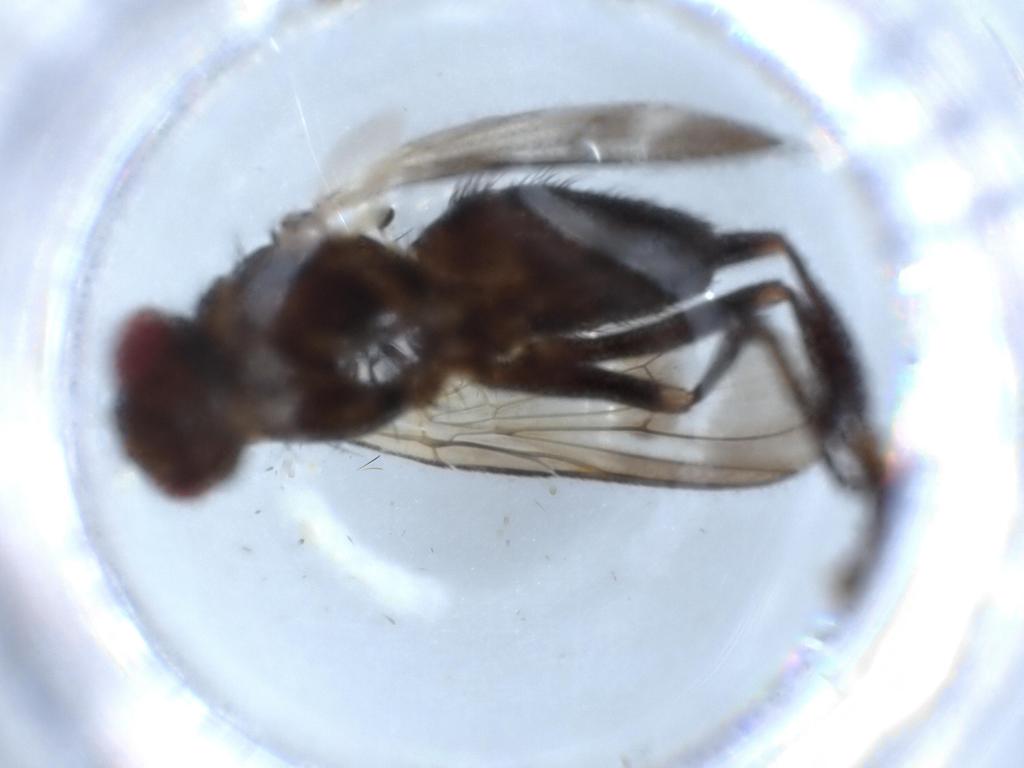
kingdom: Animalia
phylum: Arthropoda
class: Insecta
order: Diptera
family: Calliphoridae
